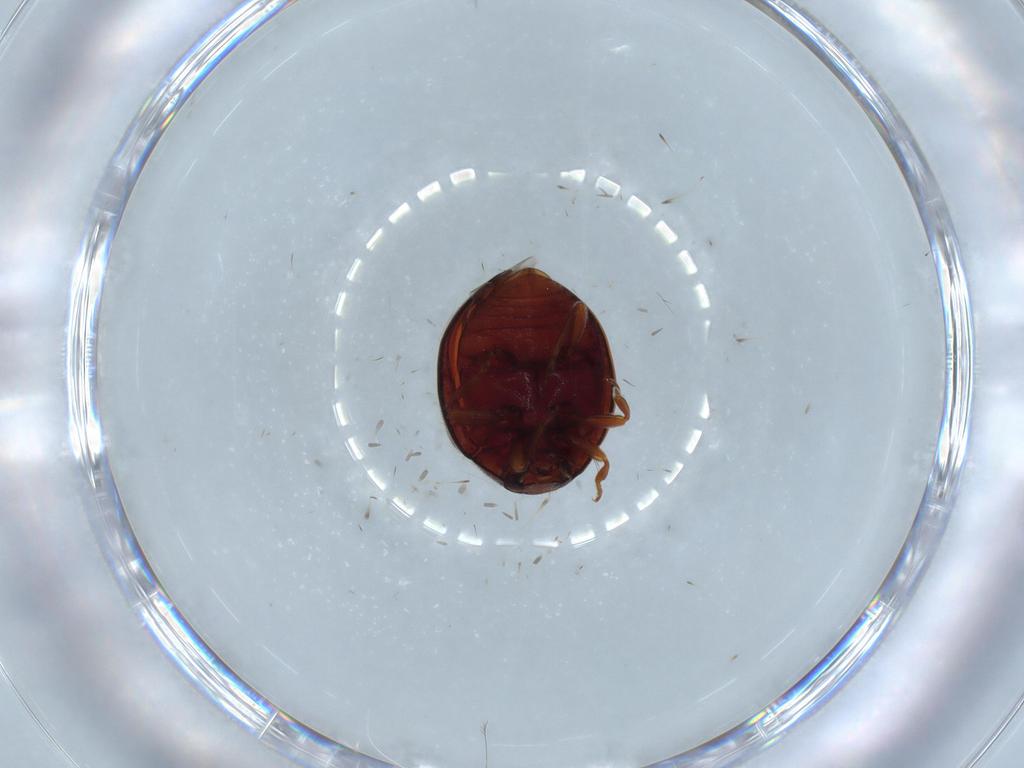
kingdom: Animalia
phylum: Arthropoda
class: Insecta
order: Coleoptera
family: Coccinellidae
